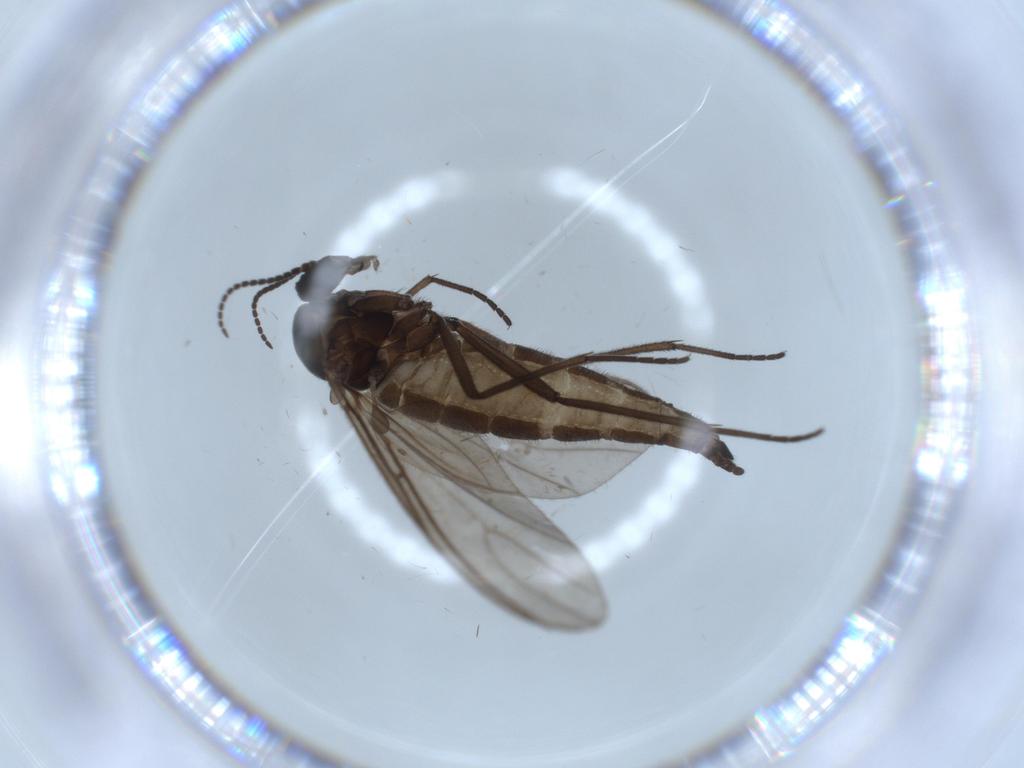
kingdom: Animalia
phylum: Arthropoda
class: Insecta
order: Diptera
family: Sciaridae
